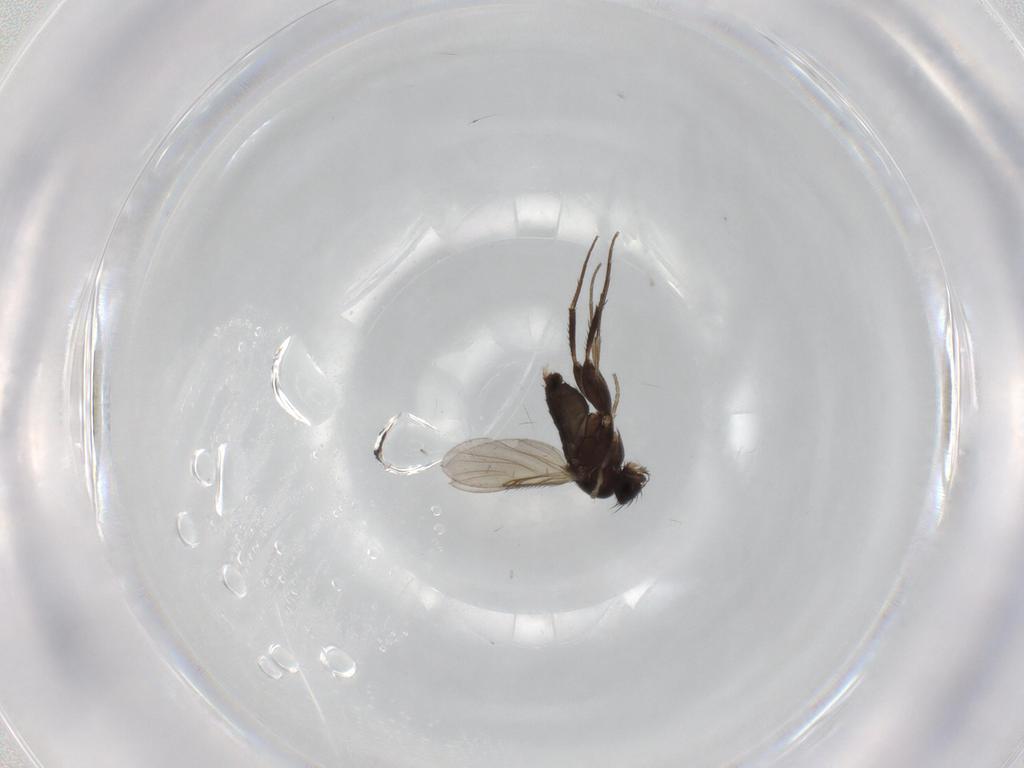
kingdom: Animalia
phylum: Arthropoda
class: Insecta
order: Diptera
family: Phoridae
